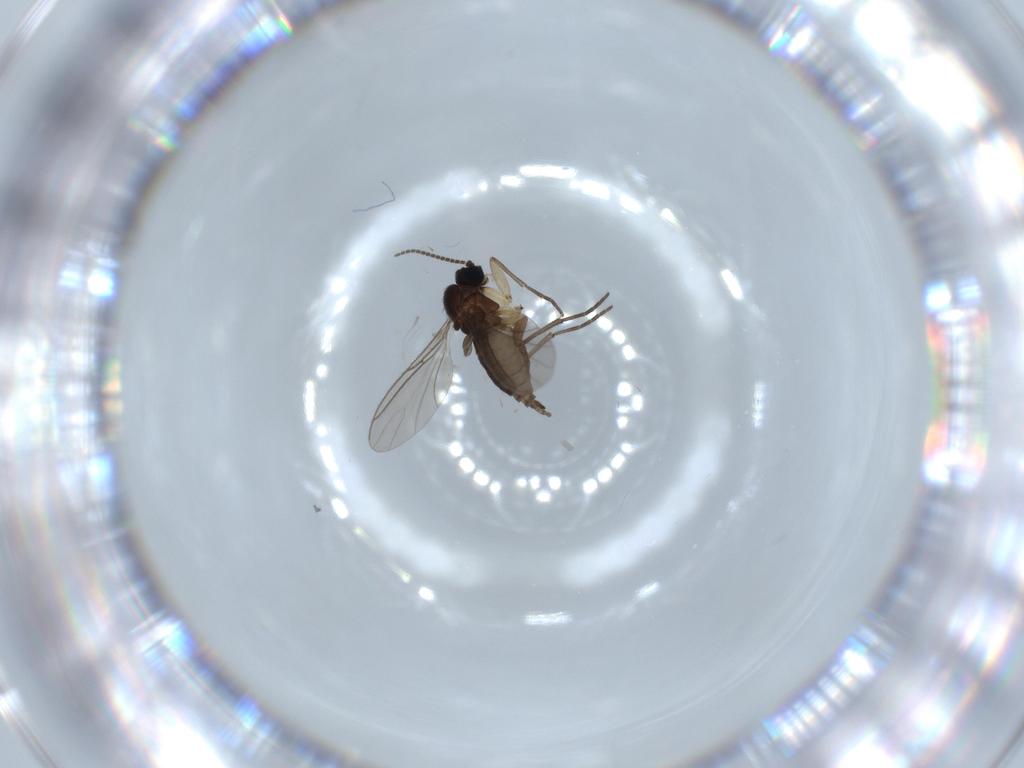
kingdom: Animalia
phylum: Arthropoda
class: Insecta
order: Diptera
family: Sciaridae
